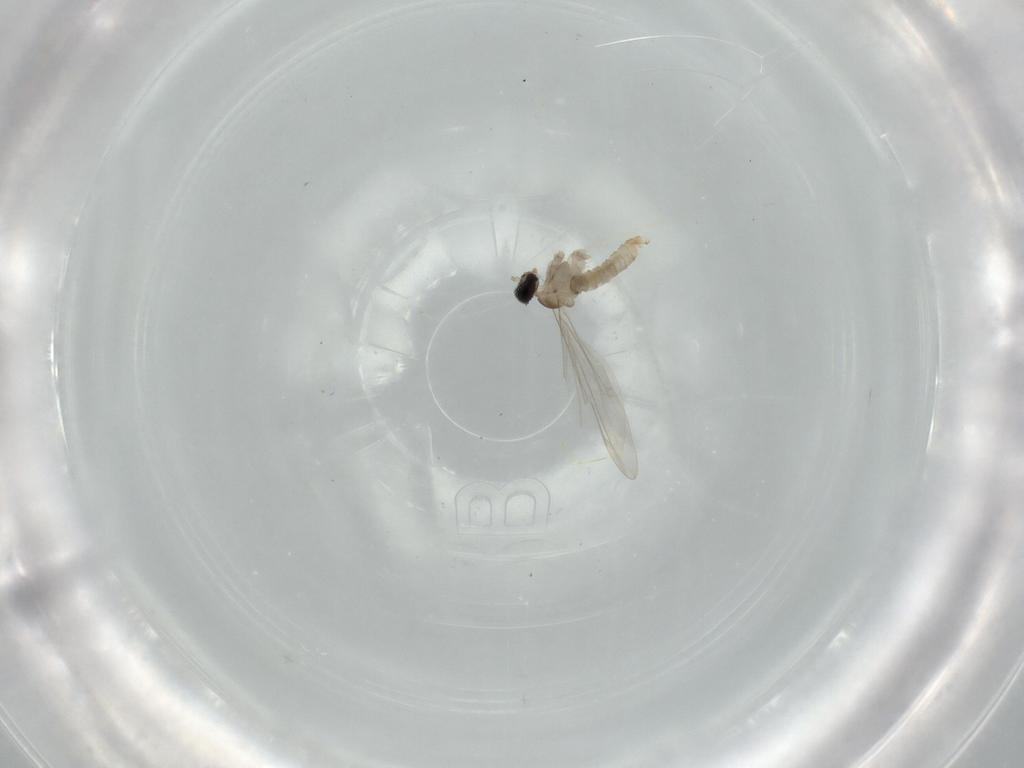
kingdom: Animalia
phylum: Arthropoda
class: Insecta
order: Diptera
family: Cecidomyiidae
